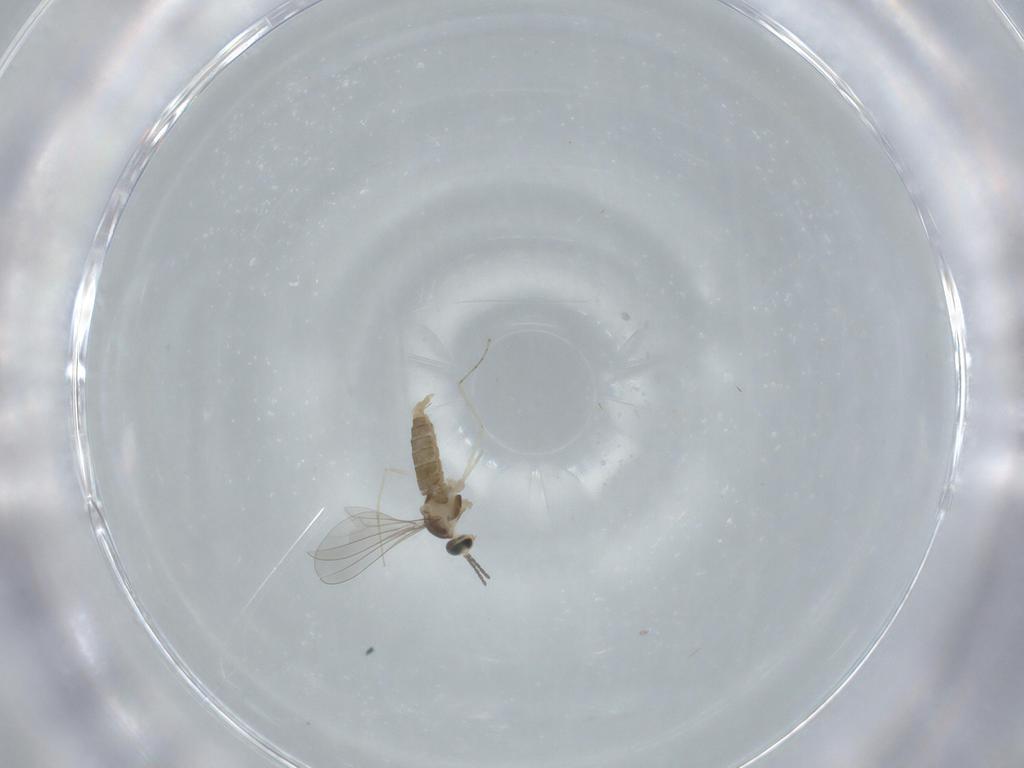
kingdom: Animalia
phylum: Arthropoda
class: Insecta
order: Diptera
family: Cecidomyiidae
